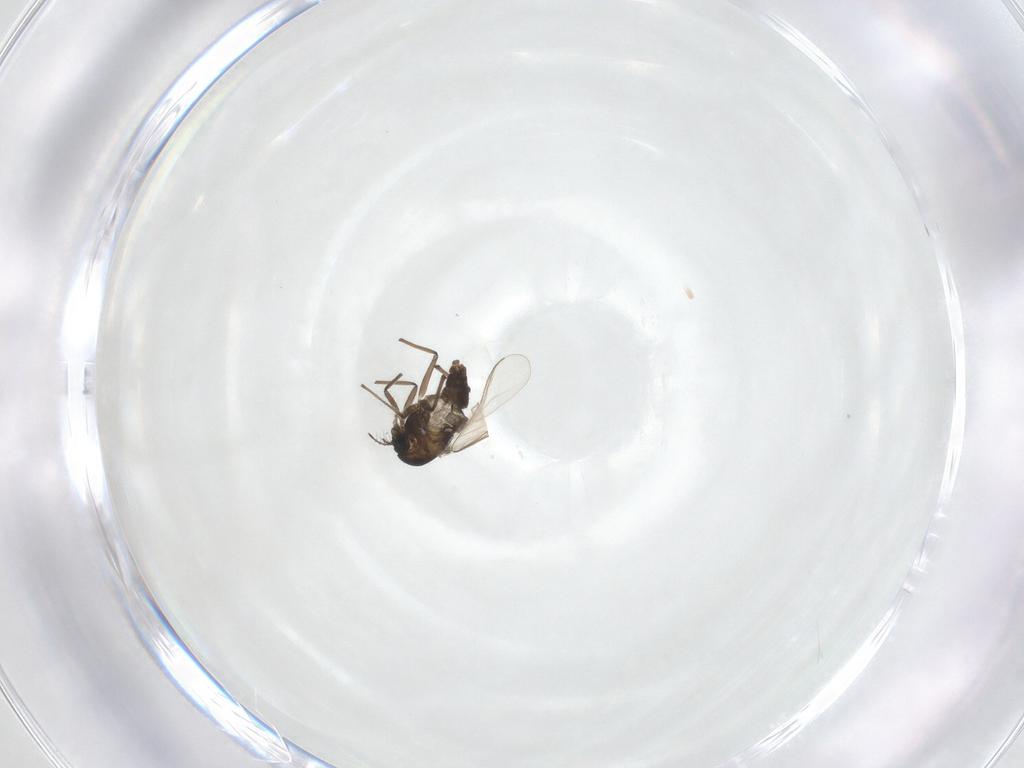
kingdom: Animalia
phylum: Arthropoda
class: Insecta
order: Diptera
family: Chironomidae
